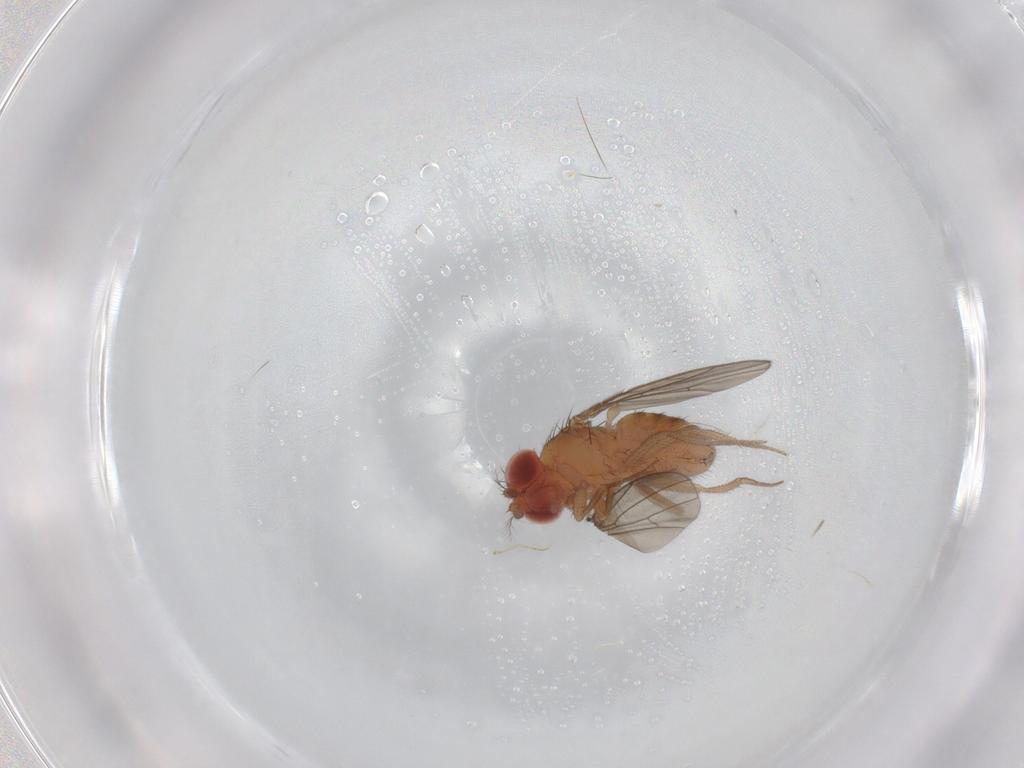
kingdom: Animalia
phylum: Arthropoda
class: Insecta
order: Diptera
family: Drosophilidae
